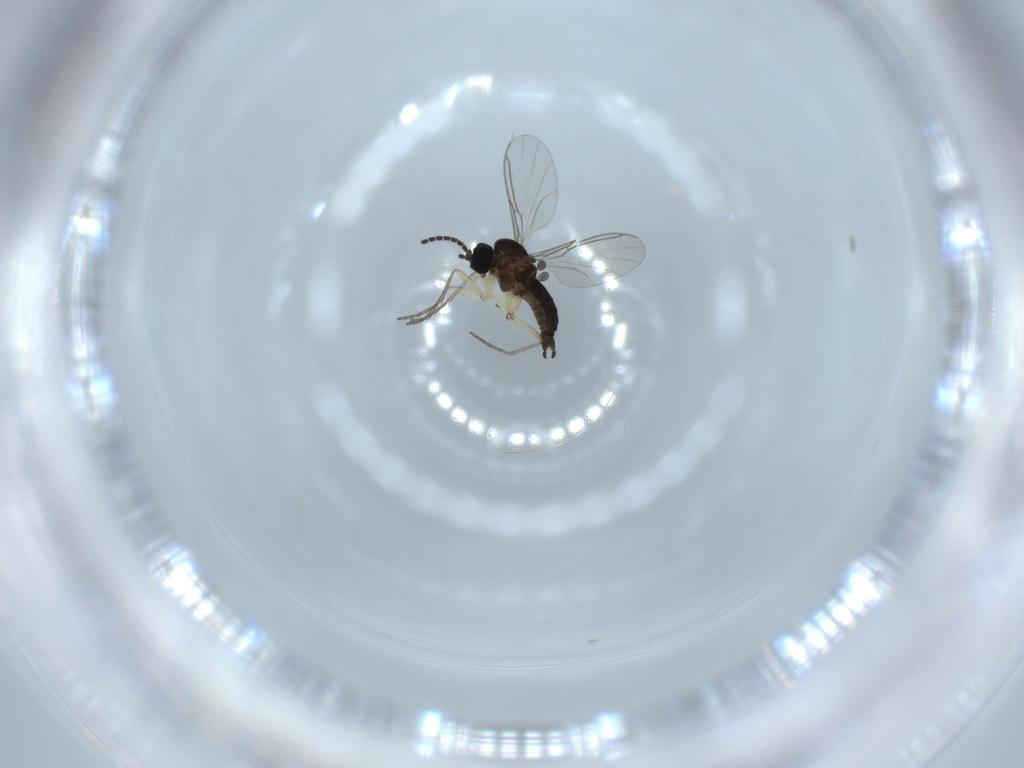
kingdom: Animalia
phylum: Arthropoda
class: Insecta
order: Diptera
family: Sciaridae
